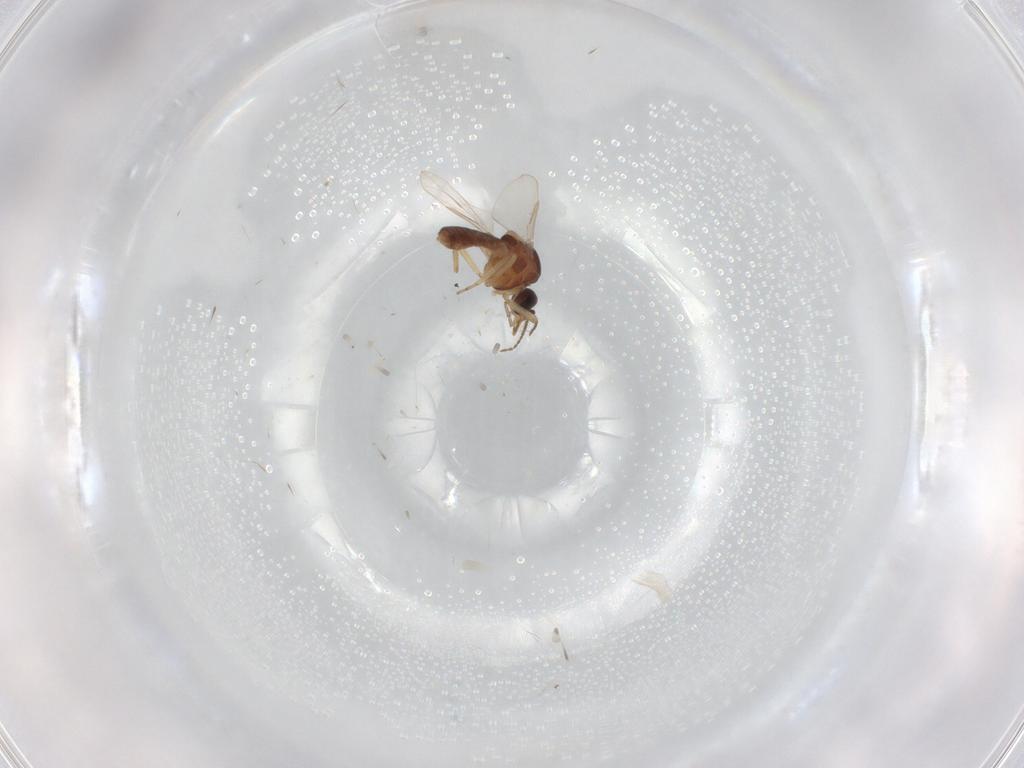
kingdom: Animalia
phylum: Arthropoda
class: Insecta
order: Diptera
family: Ceratopogonidae
